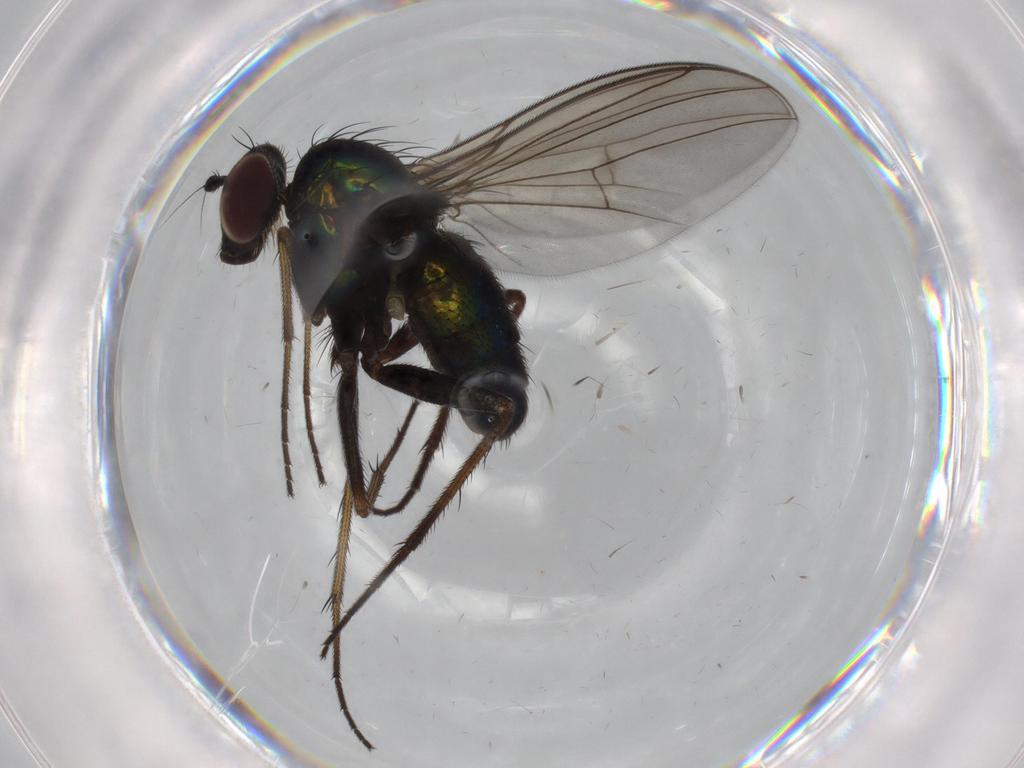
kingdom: Animalia
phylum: Arthropoda
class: Insecta
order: Diptera
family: Dolichopodidae
